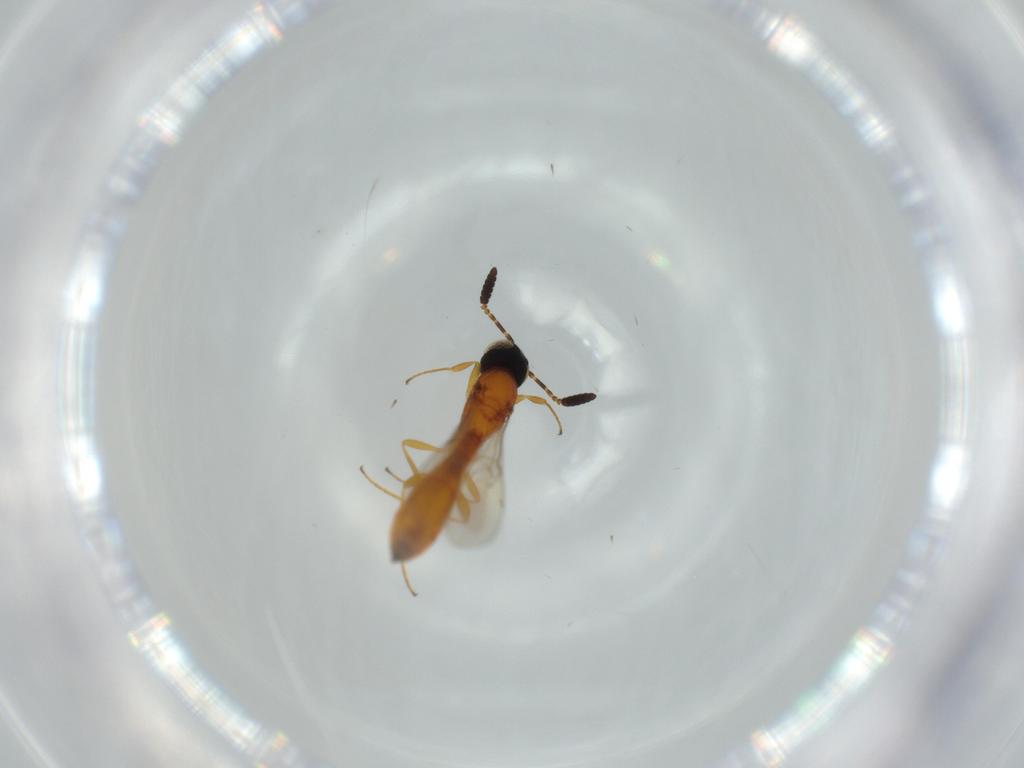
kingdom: Animalia
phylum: Arthropoda
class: Insecta
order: Hymenoptera
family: Scelionidae
